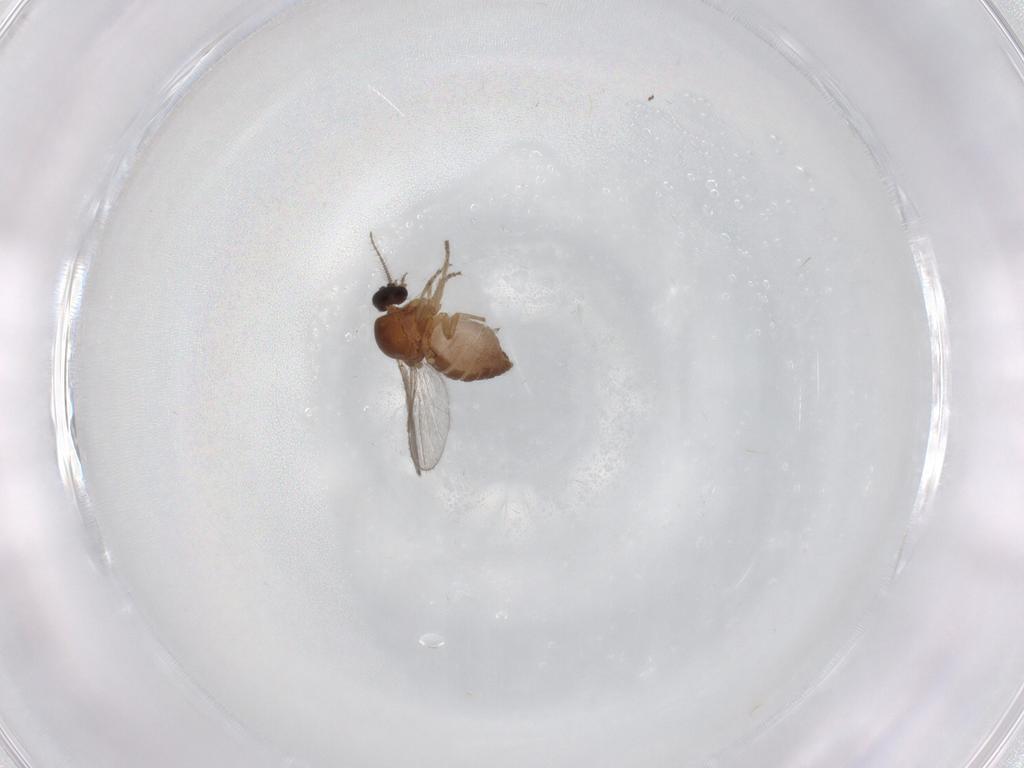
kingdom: Animalia
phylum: Arthropoda
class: Insecta
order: Diptera
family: Ceratopogonidae
